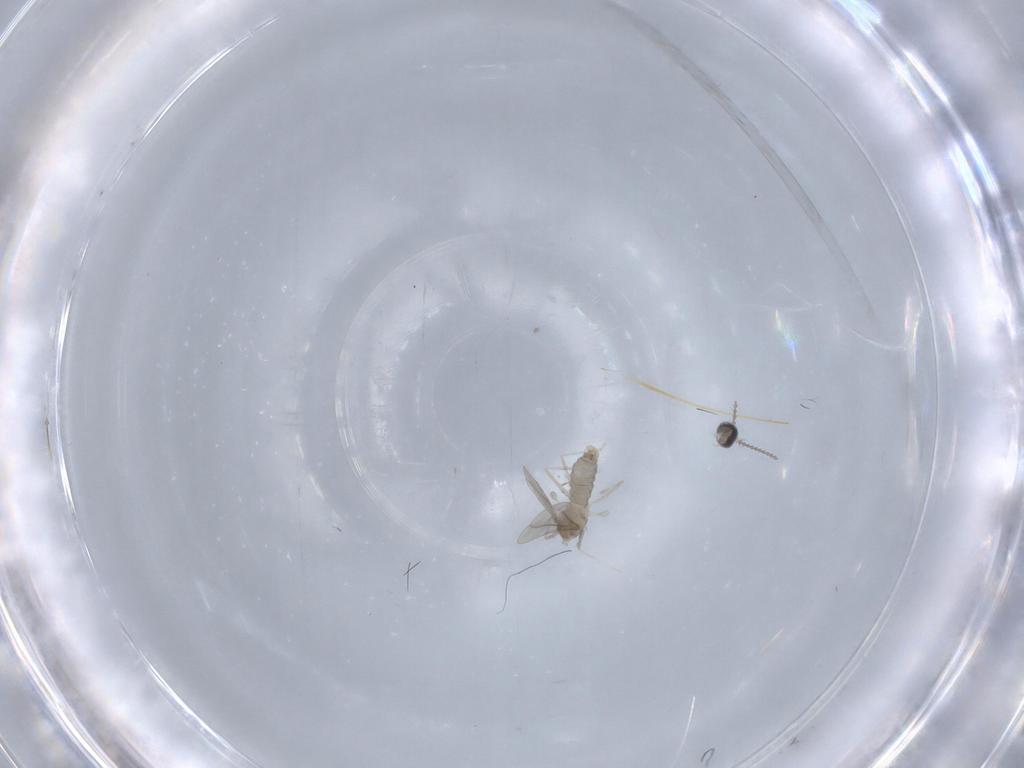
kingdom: Animalia
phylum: Arthropoda
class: Insecta
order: Diptera
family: Cecidomyiidae
